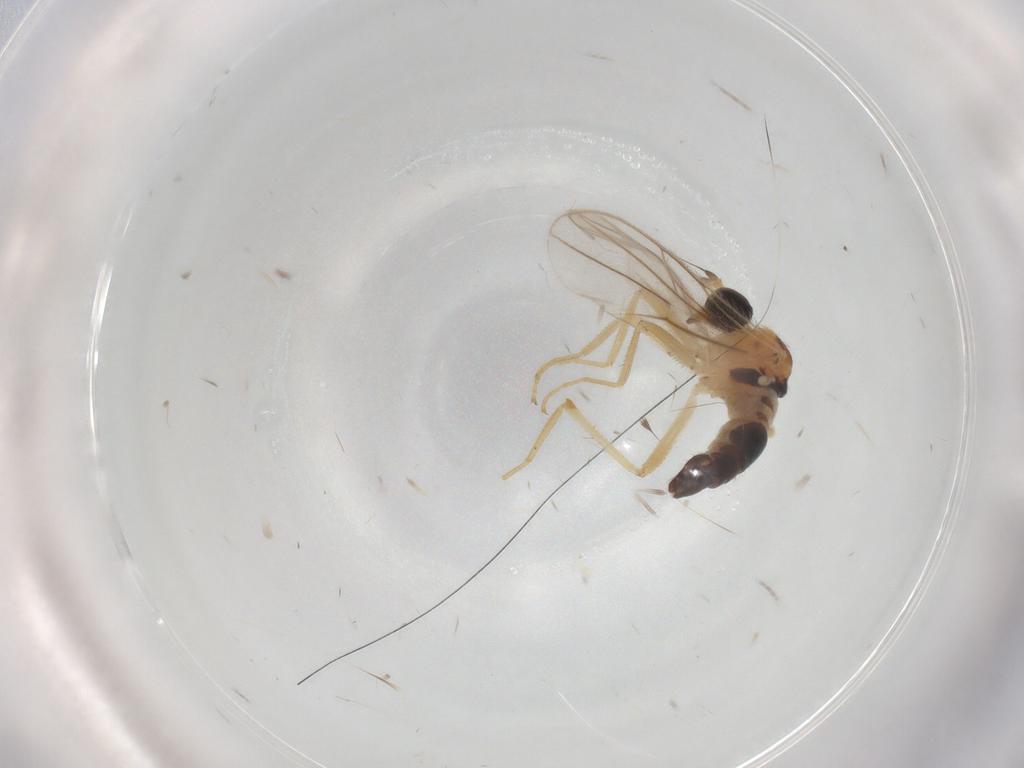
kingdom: Animalia
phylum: Arthropoda
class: Insecta
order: Diptera
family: Hybotidae
